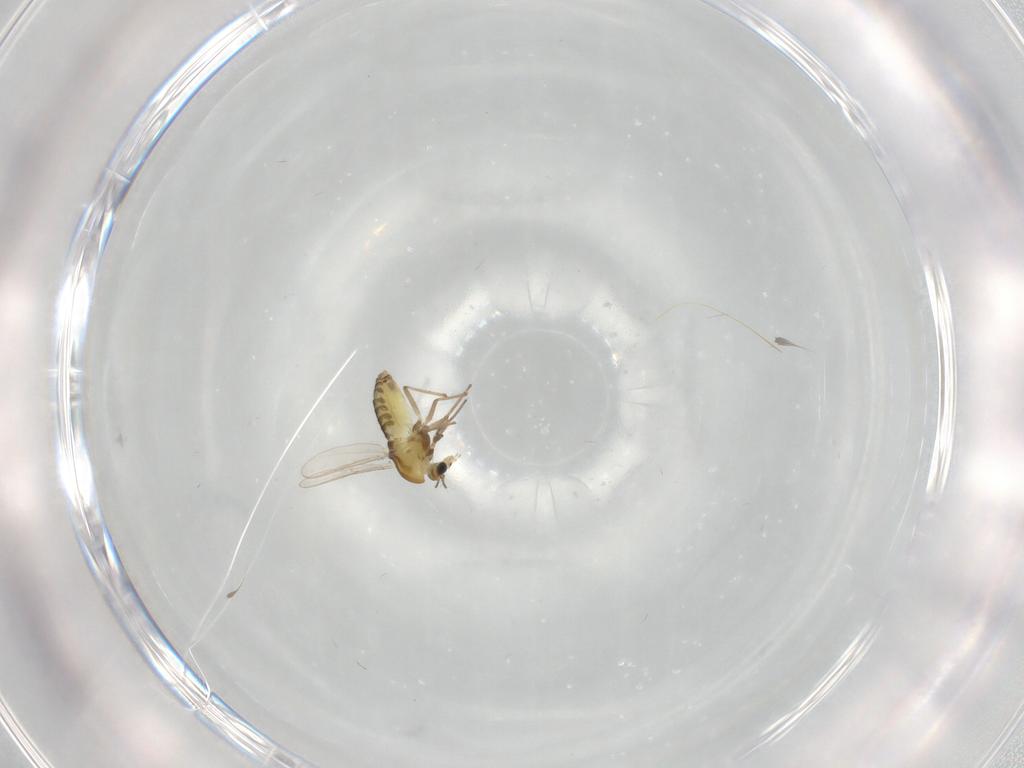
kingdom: Animalia
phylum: Arthropoda
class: Insecta
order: Diptera
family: Chironomidae
